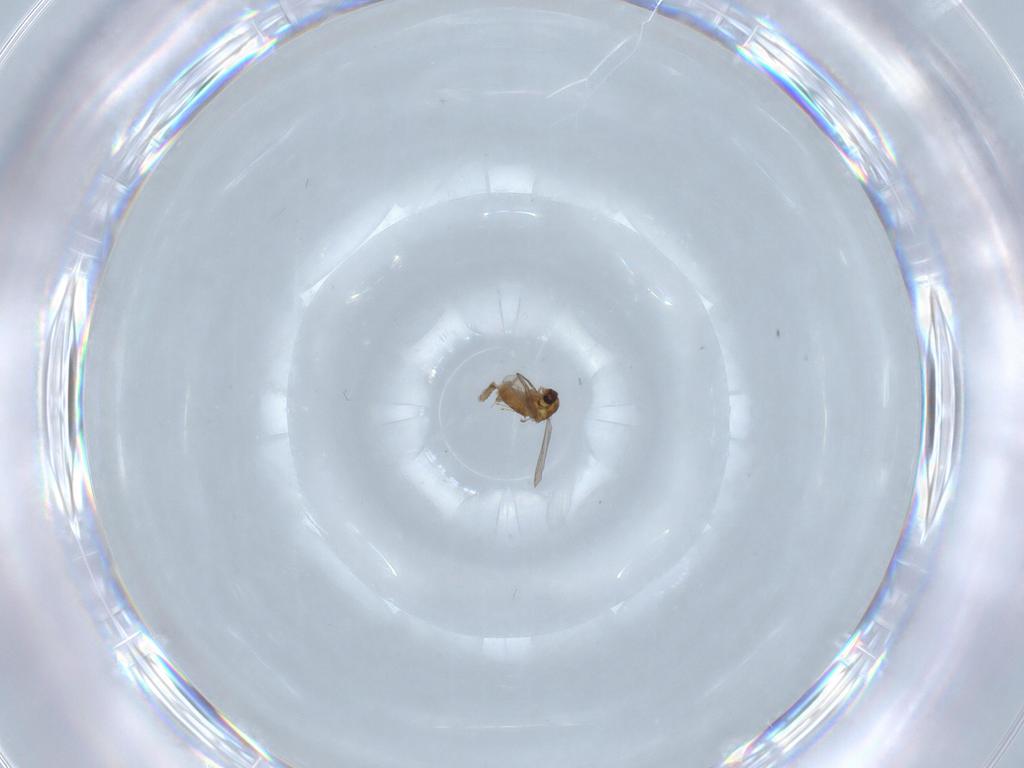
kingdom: Animalia
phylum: Arthropoda
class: Insecta
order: Diptera
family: Chironomidae
